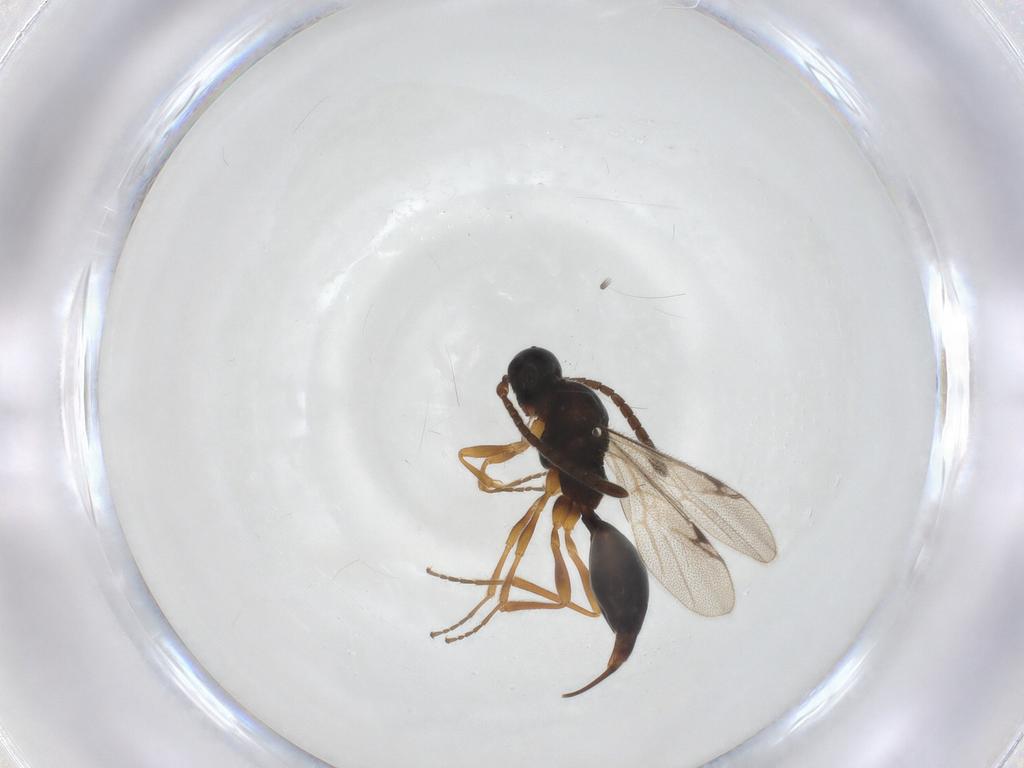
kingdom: Animalia
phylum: Arthropoda
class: Insecta
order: Hymenoptera
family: Proctotrupidae
